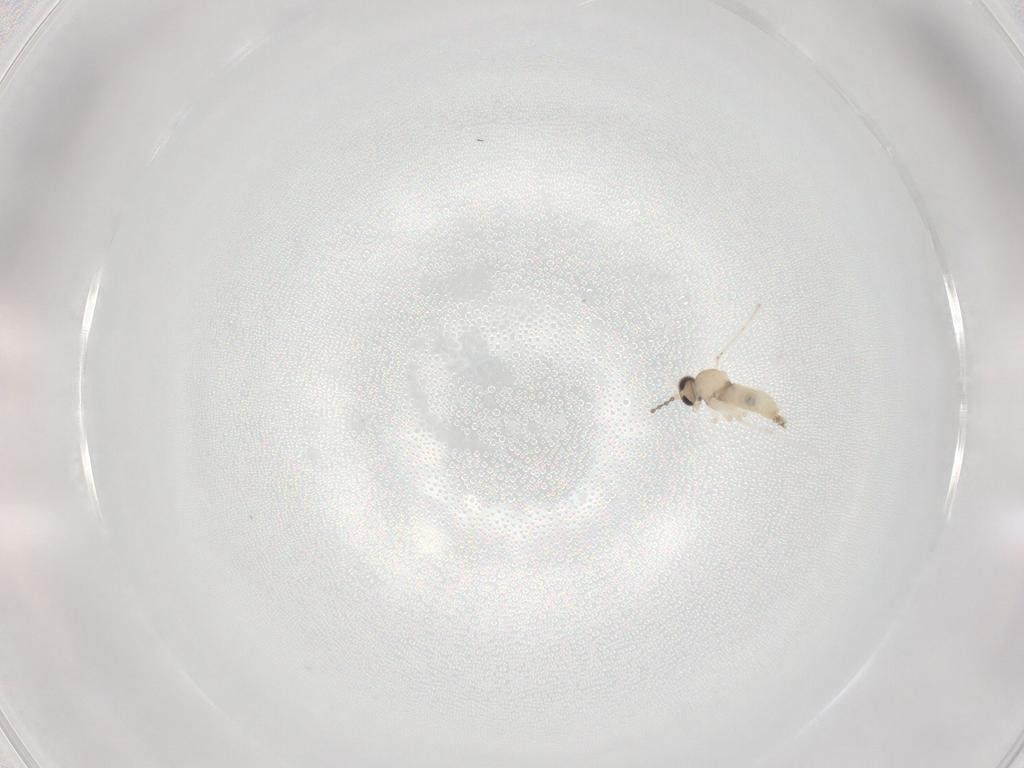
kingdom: Animalia
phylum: Arthropoda
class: Insecta
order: Diptera
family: Cecidomyiidae
